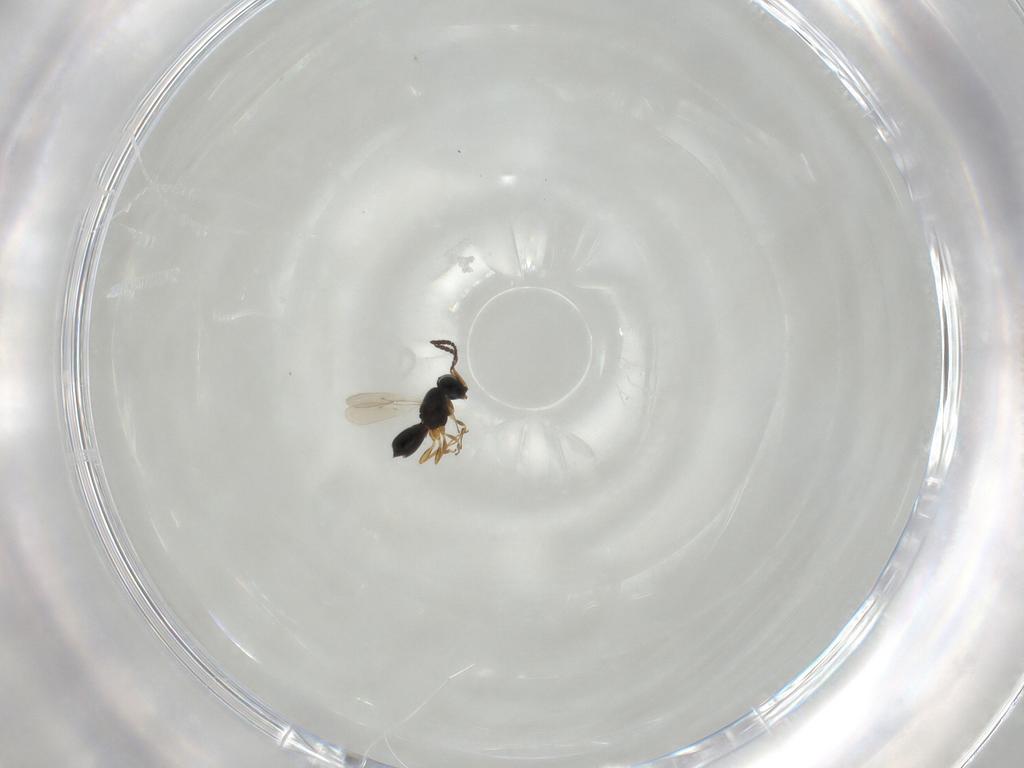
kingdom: Animalia
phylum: Arthropoda
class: Insecta
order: Hymenoptera
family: Scelionidae
